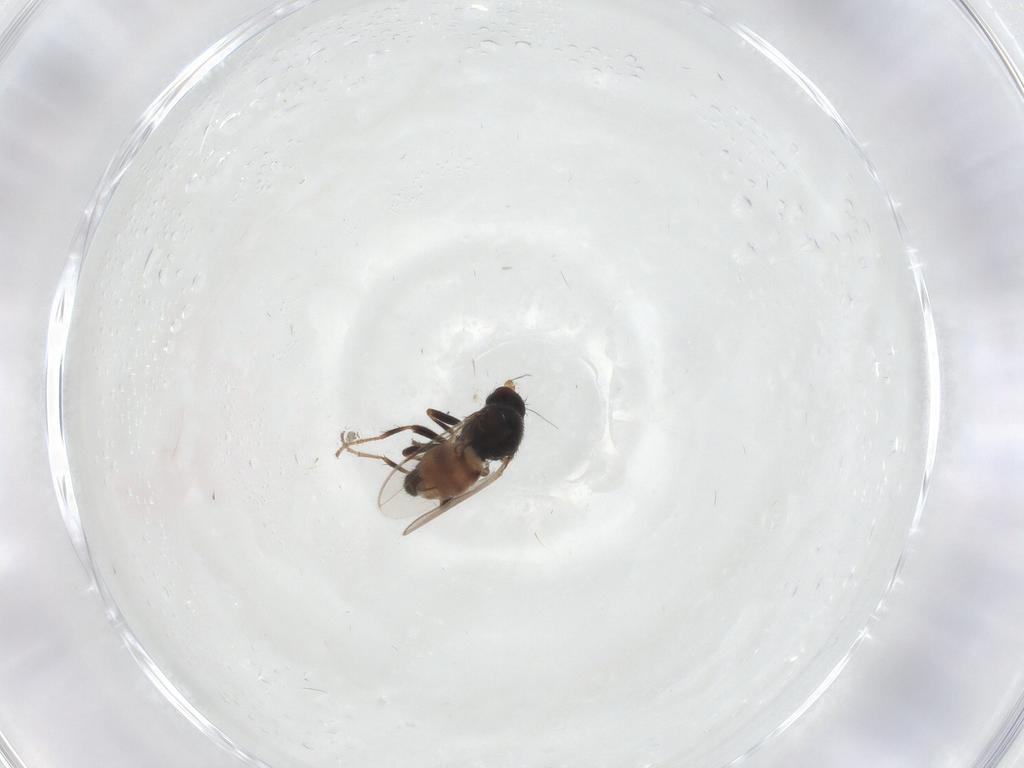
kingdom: Animalia
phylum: Arthropoda
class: Insecta
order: Diptera
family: Sphaeroceridae
